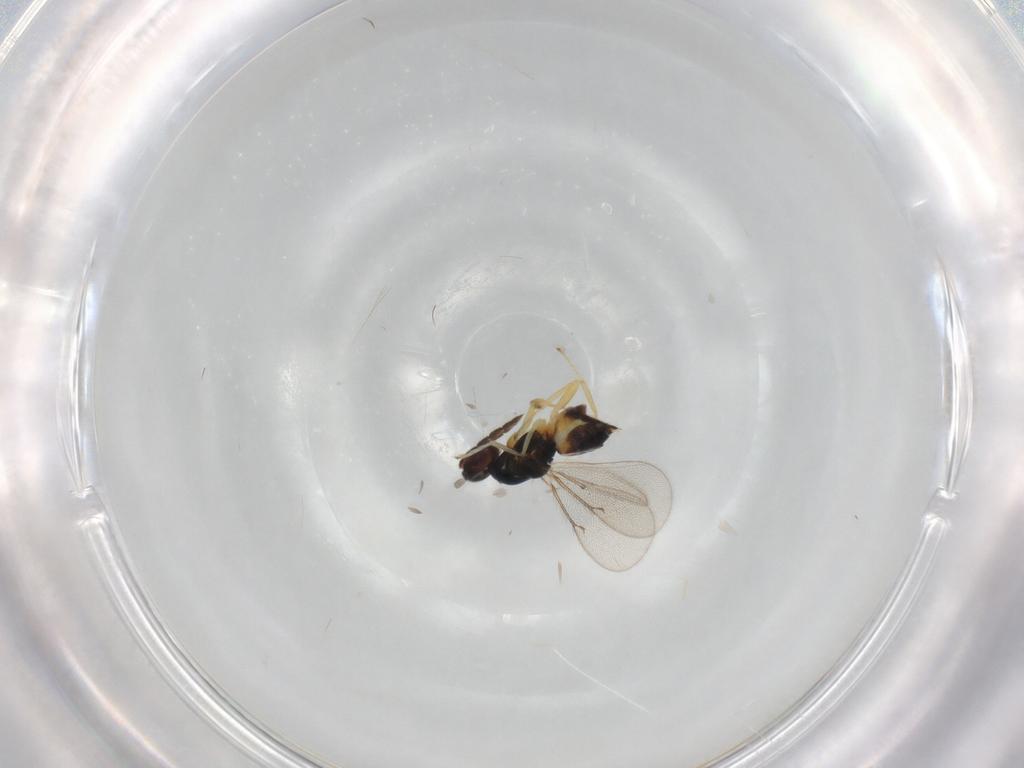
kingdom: Animalia
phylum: Arthropoda
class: Insecta
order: Hymenoptera
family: Eulophidae
